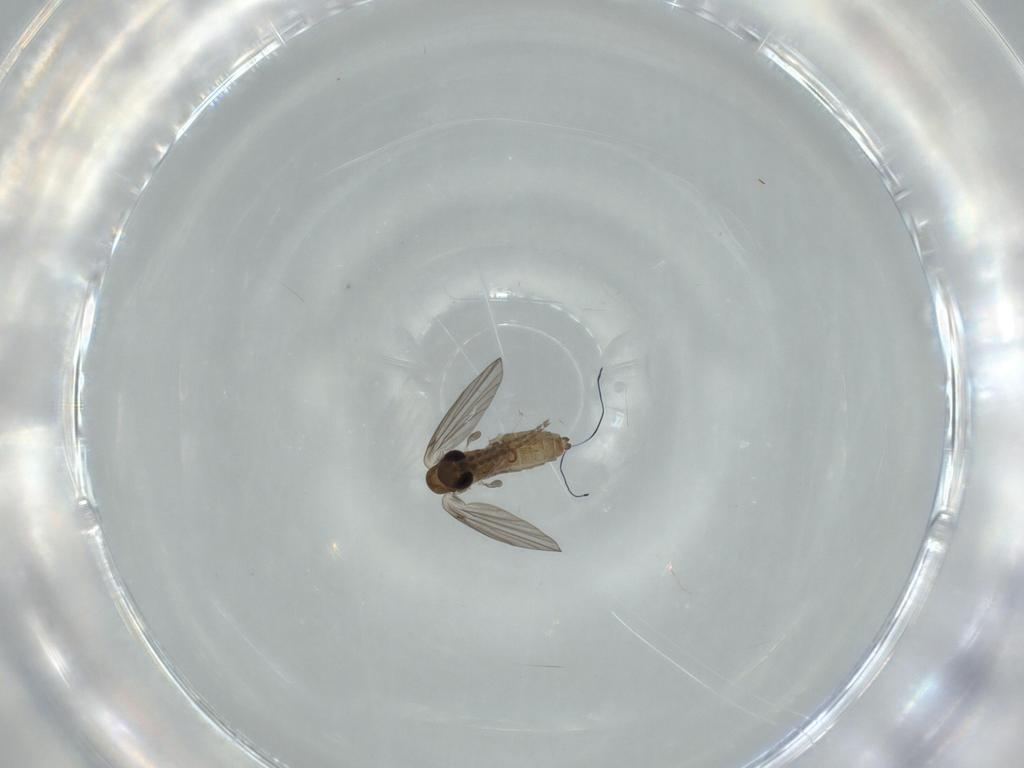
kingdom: Animalia
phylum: Arthropoda
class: Insecta
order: Diptera
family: Psychodidae
